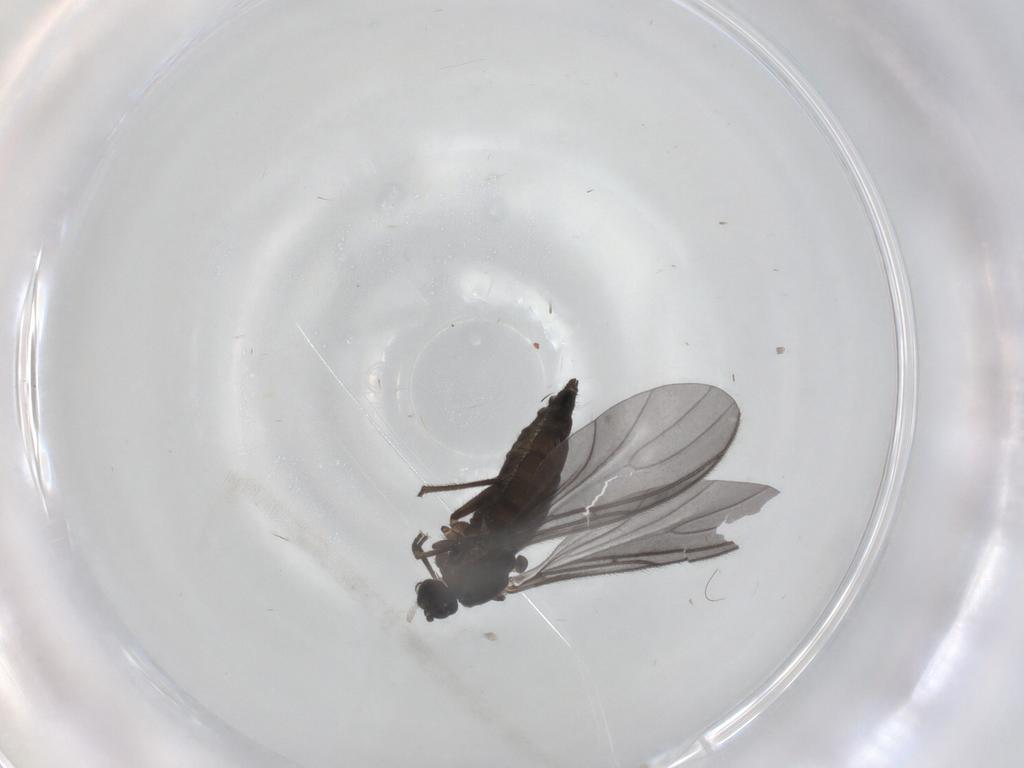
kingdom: Animalia
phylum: Arthropoda
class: Insecta
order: Diptera
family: Sciaridae
